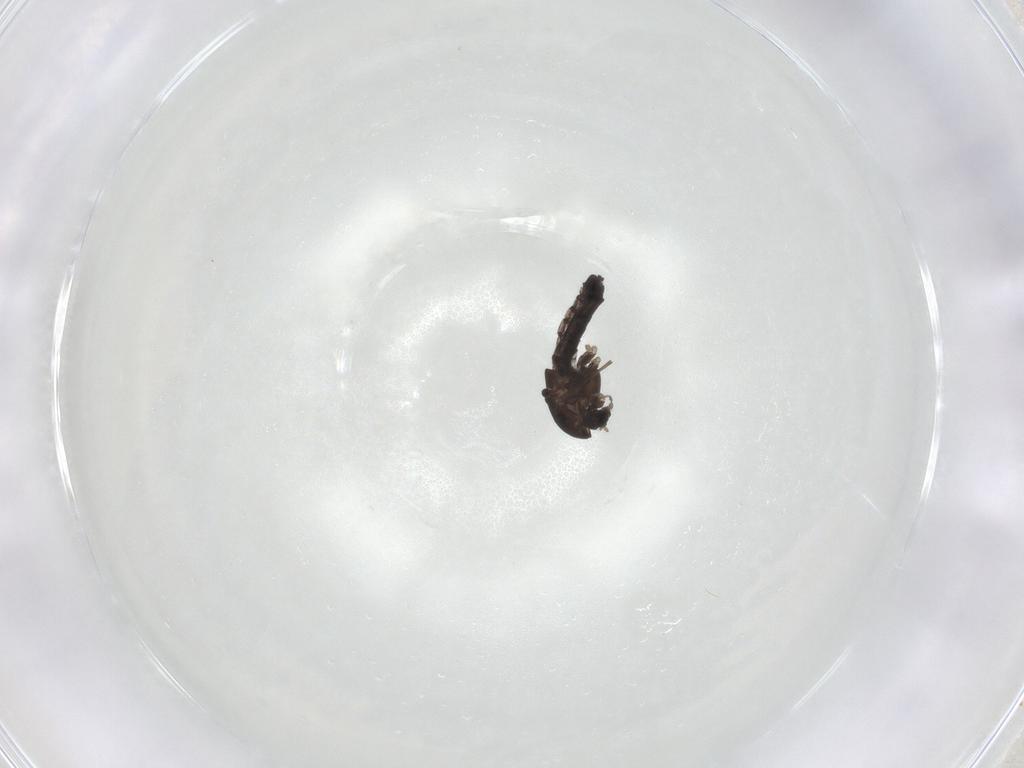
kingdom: Animalia
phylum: Arthropoda
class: Insecta
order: Diptera
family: Chironomidae
